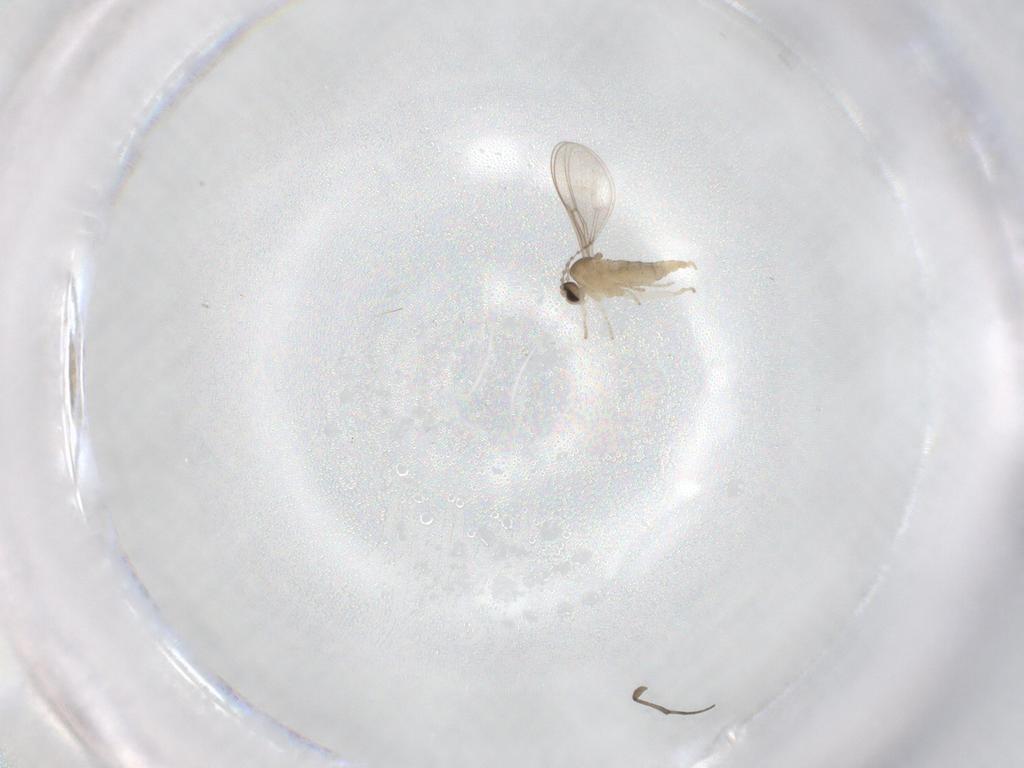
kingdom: Animalia
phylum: Arthropoda
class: Insecta
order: Diptera
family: Sciaridae
